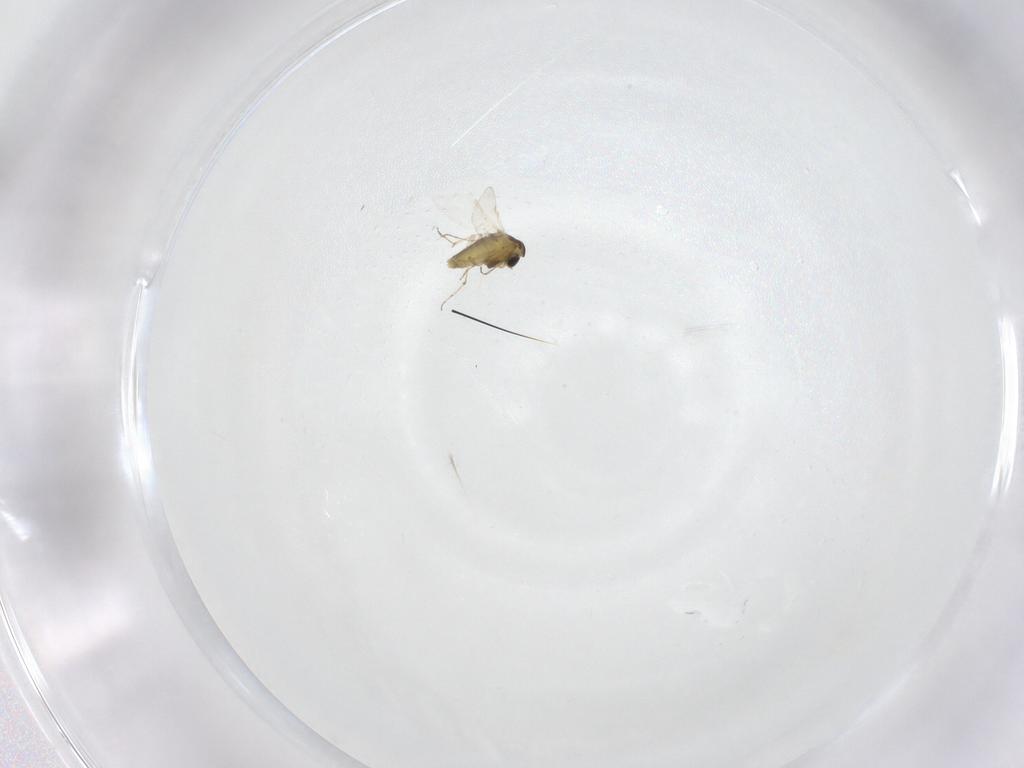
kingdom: Animalia
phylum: Arthropoda
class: Insecta
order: Diptera
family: Chironomidae
